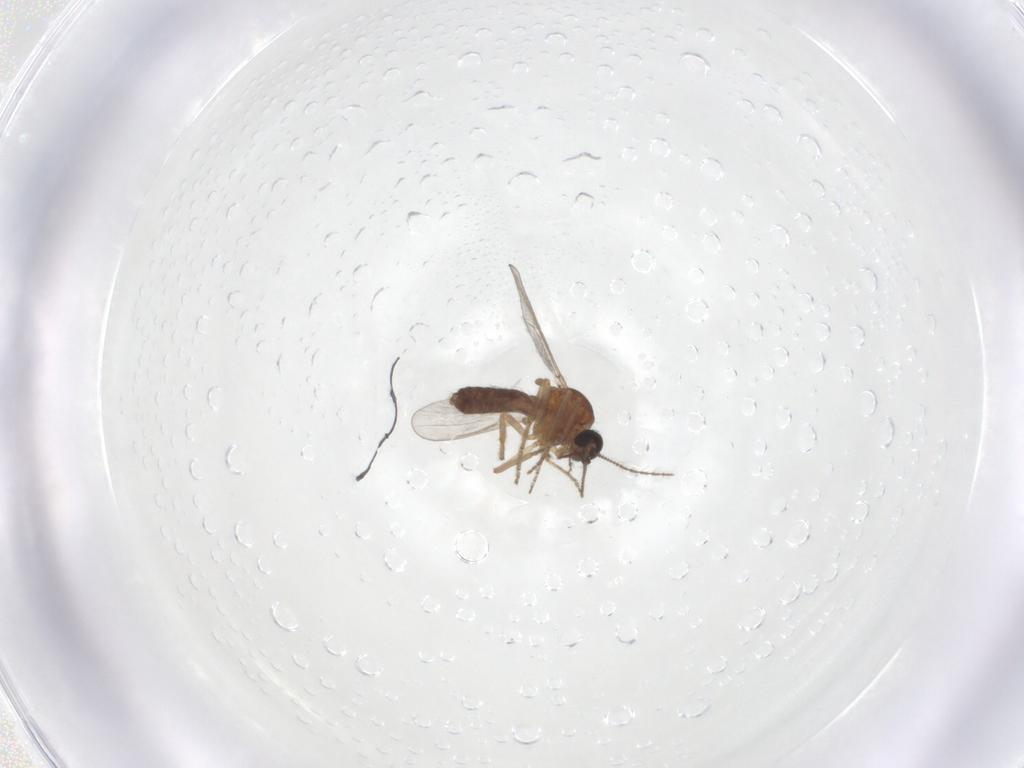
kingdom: Animalia
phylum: Arthropoda
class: Insecta
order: Diptera
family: Ceratopogonidae
